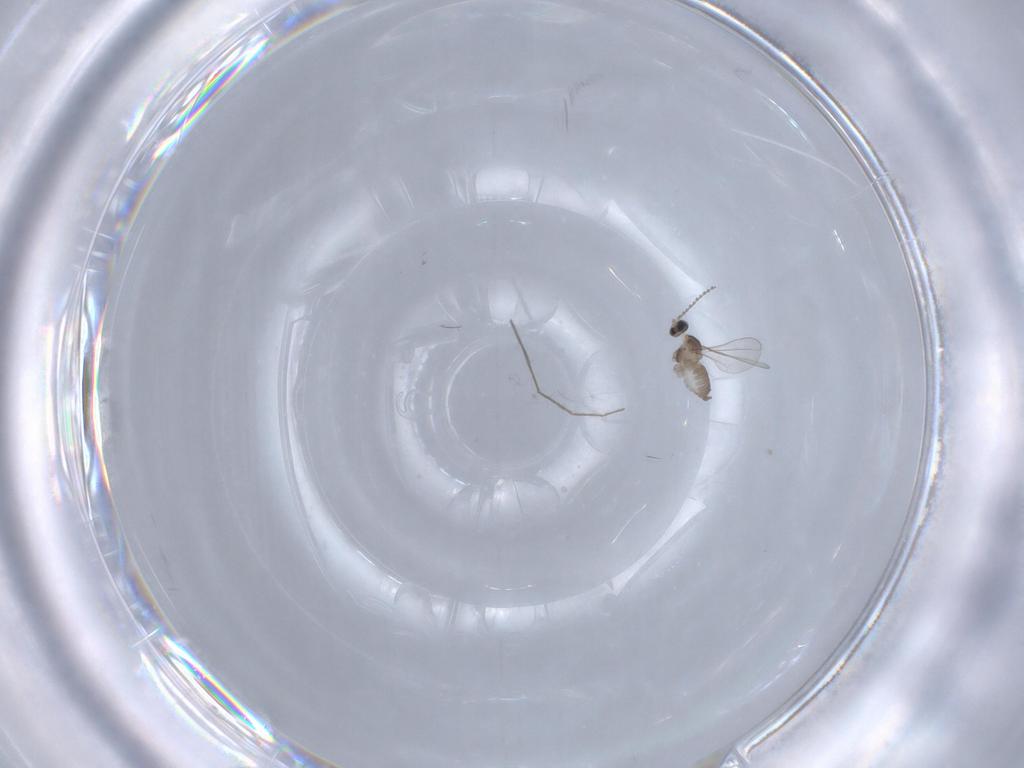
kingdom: Animalia
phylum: Arthropoda
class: Insecta
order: Diptera
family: Cecidomyiidae
